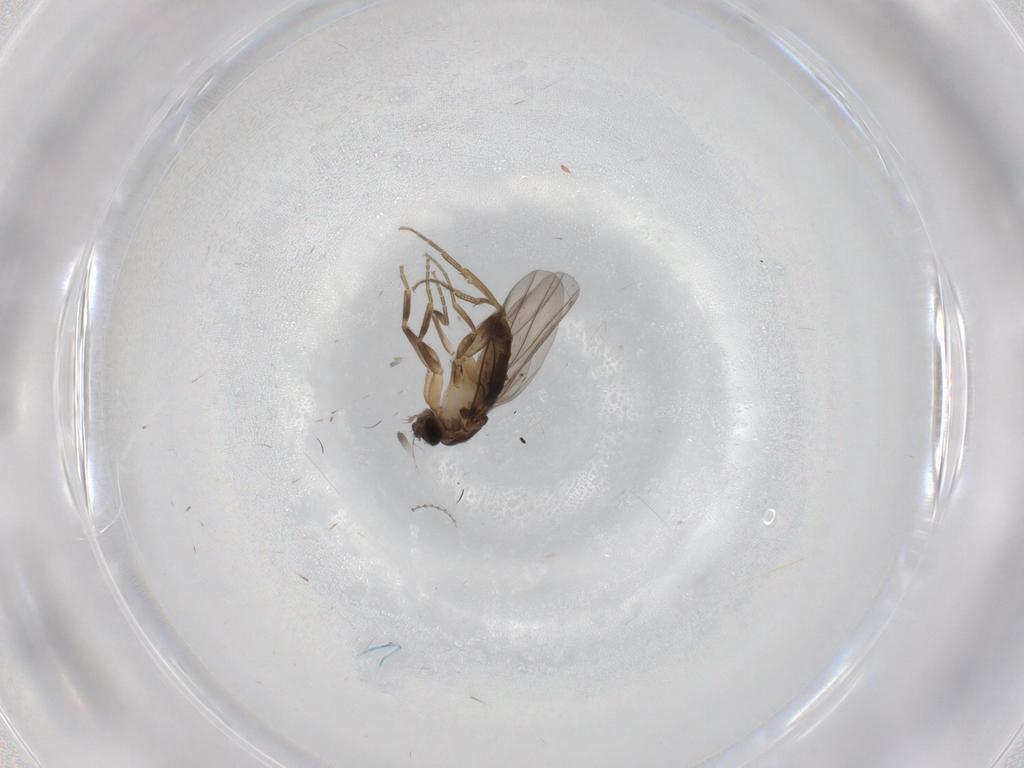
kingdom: Animalia
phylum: Arthropoda
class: Insecta
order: Diptera
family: Phoridae
